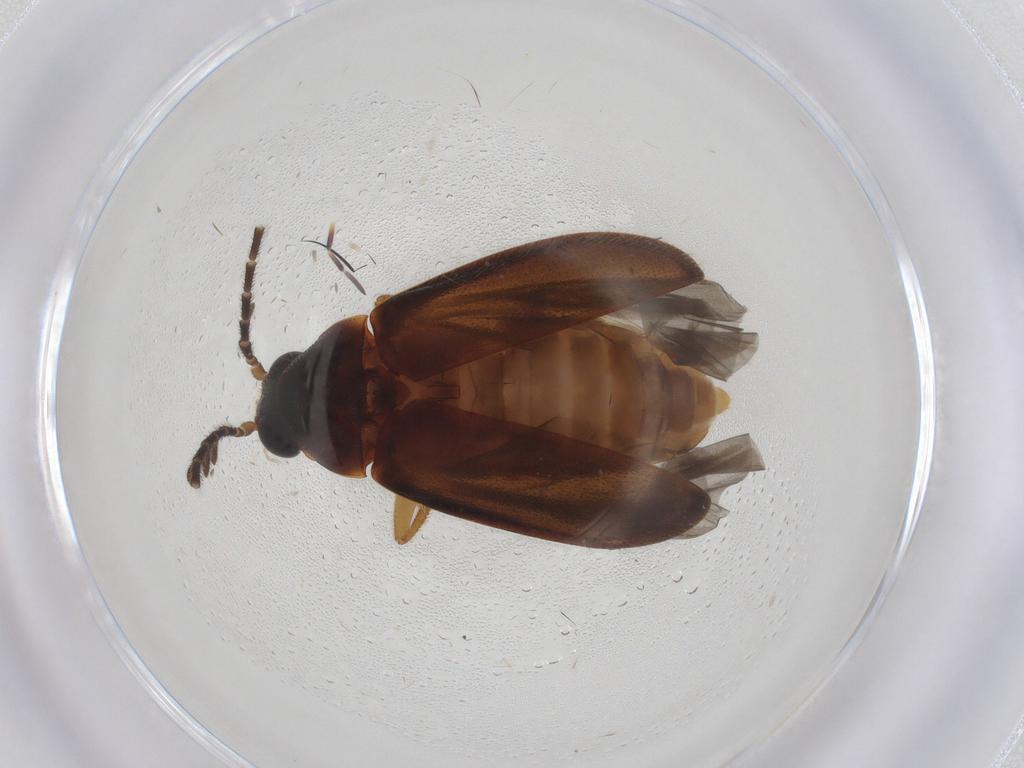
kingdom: Animalia
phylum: Arthropoda
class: Insecta
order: Coleoptera
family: Ptilodactylidae
